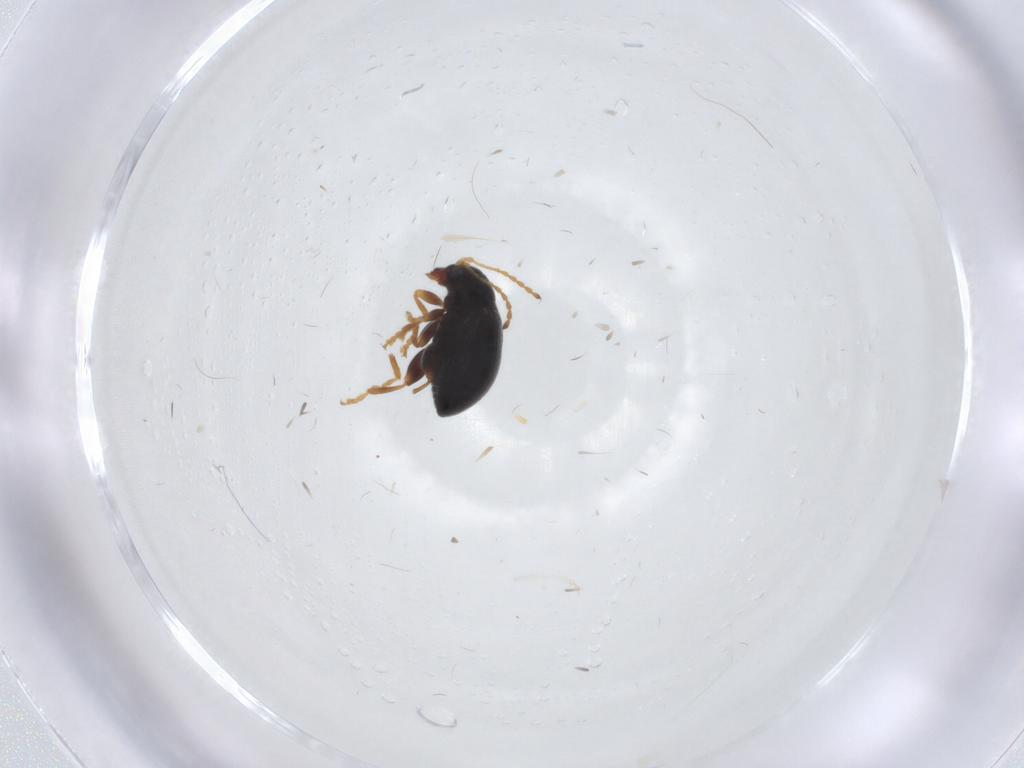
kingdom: Animalia
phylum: Arthropoda
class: Insecta
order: Coleoptera
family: Chrysomelidae
